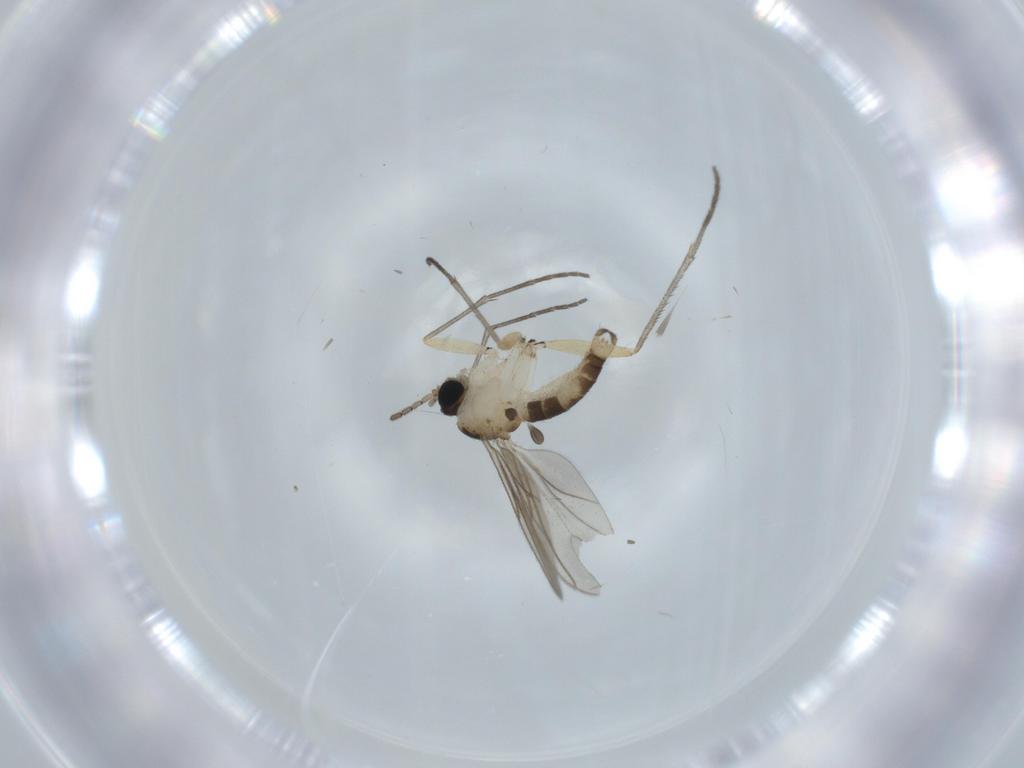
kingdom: Animalia
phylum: Arthropoda
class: Insecta
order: Diptera
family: Sciaridae
